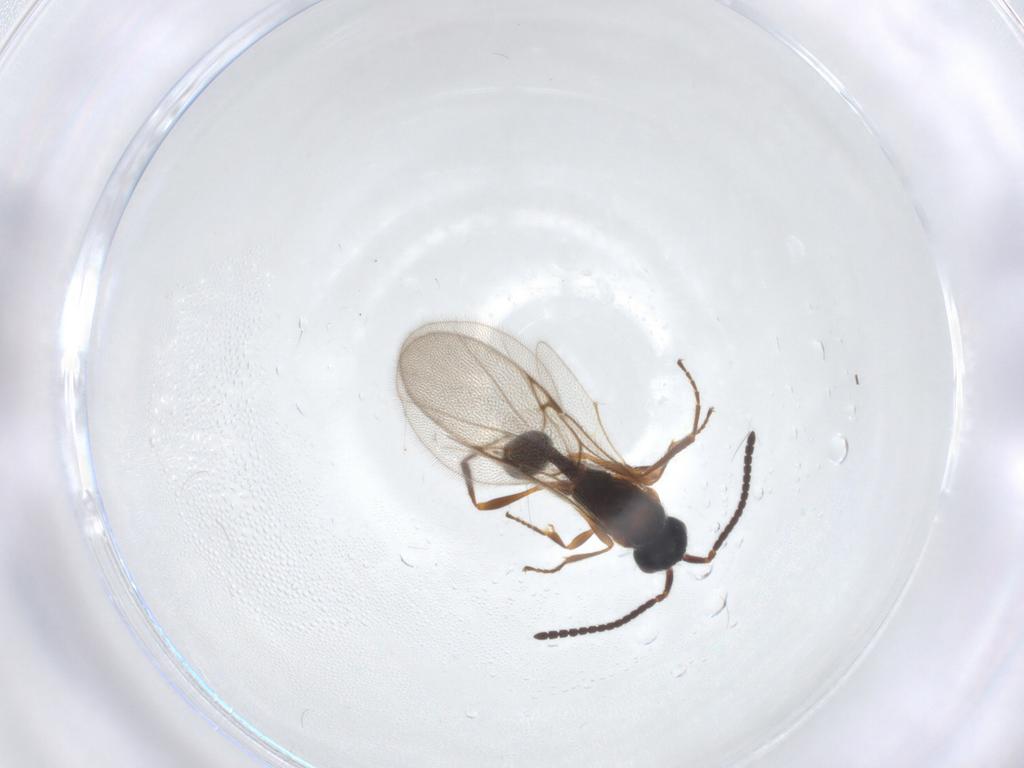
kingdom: Animalia
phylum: Arthropoda
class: Insecta
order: Hymenoptera
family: Diapriidae
